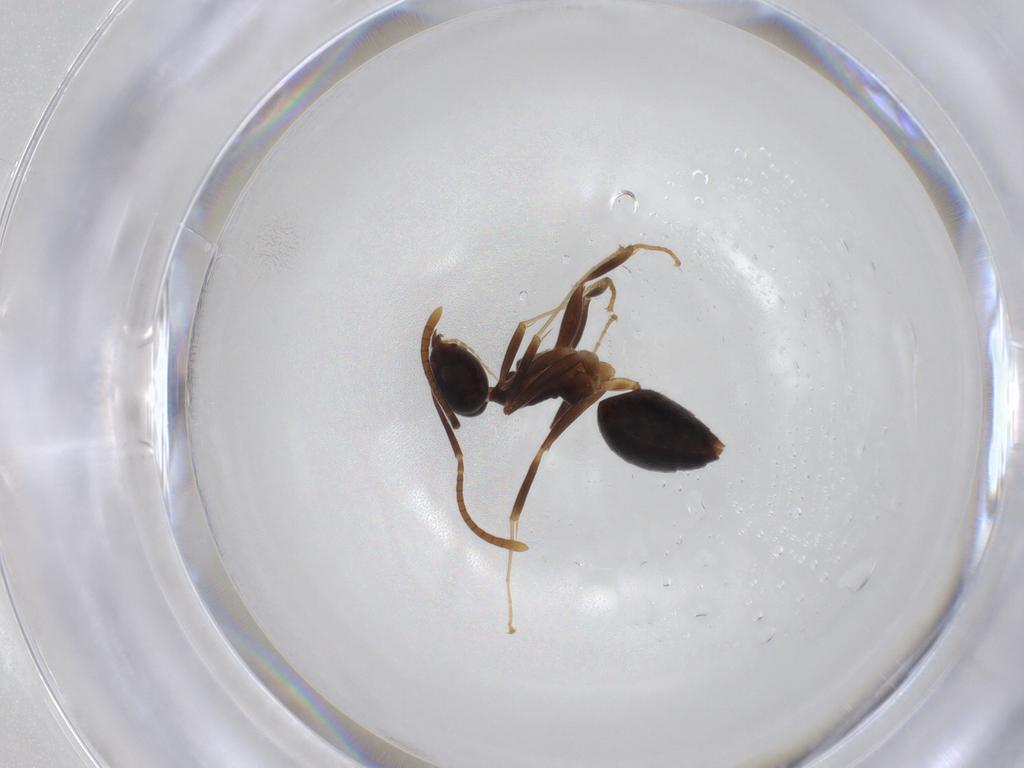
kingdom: Animalia
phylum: Arthropoda
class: Insecta
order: Hymenoptera
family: Formicidae
